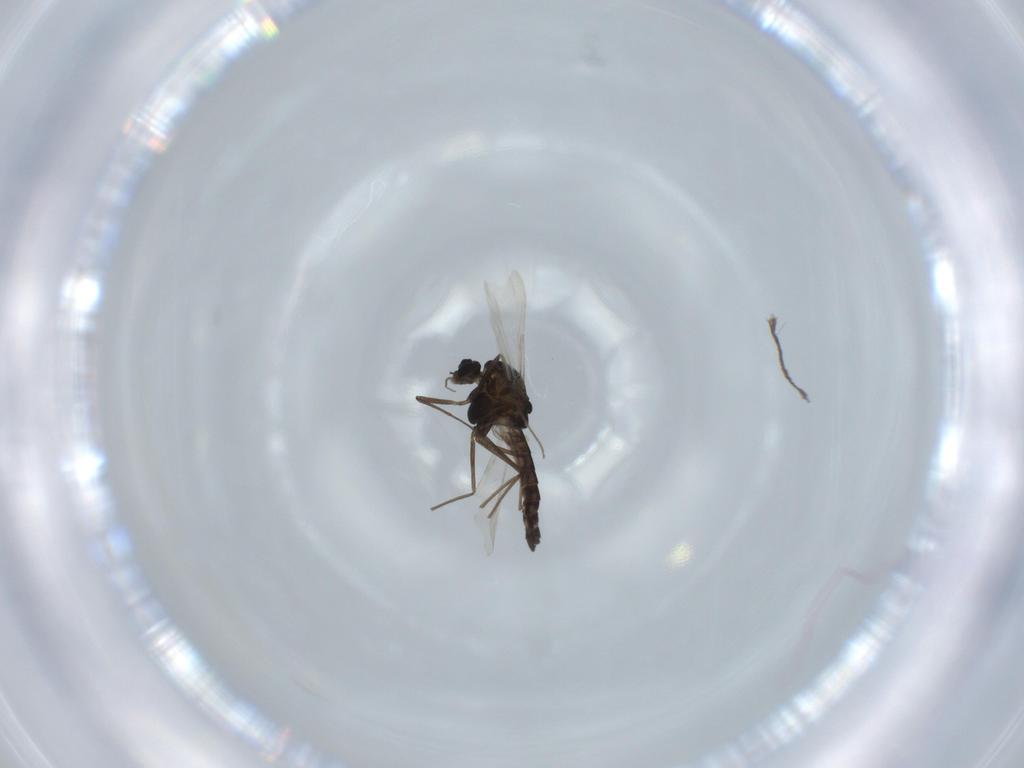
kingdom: Animalia
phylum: Arthropoda
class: Insecta
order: Diptera
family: Chironomidae
